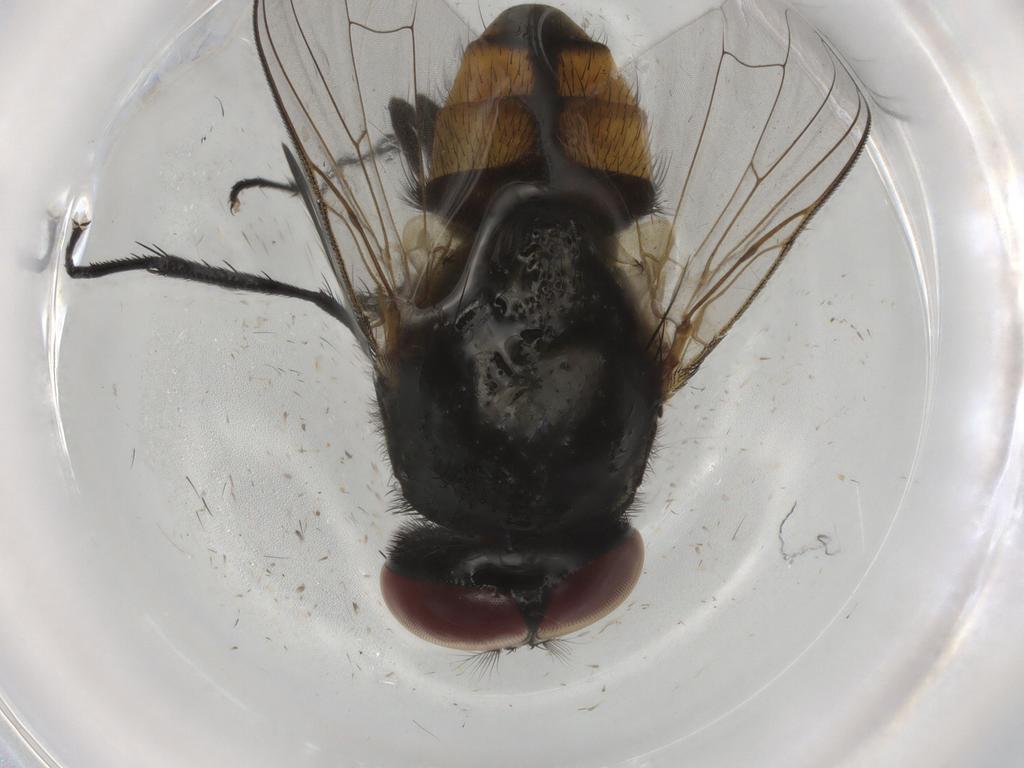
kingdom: Animalia
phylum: Arthropoda
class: Insecta
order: Diptera
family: Muscidae
